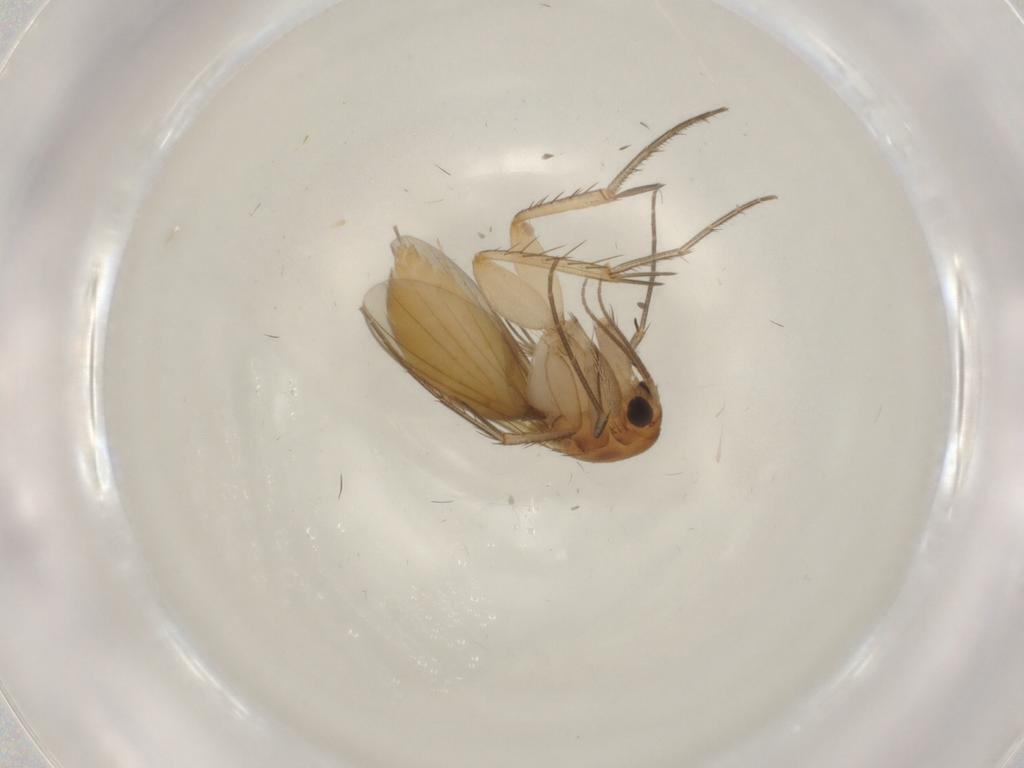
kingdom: Animalia
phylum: Arthropoda
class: Insecta
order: Diptera
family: Mycetophilidae
